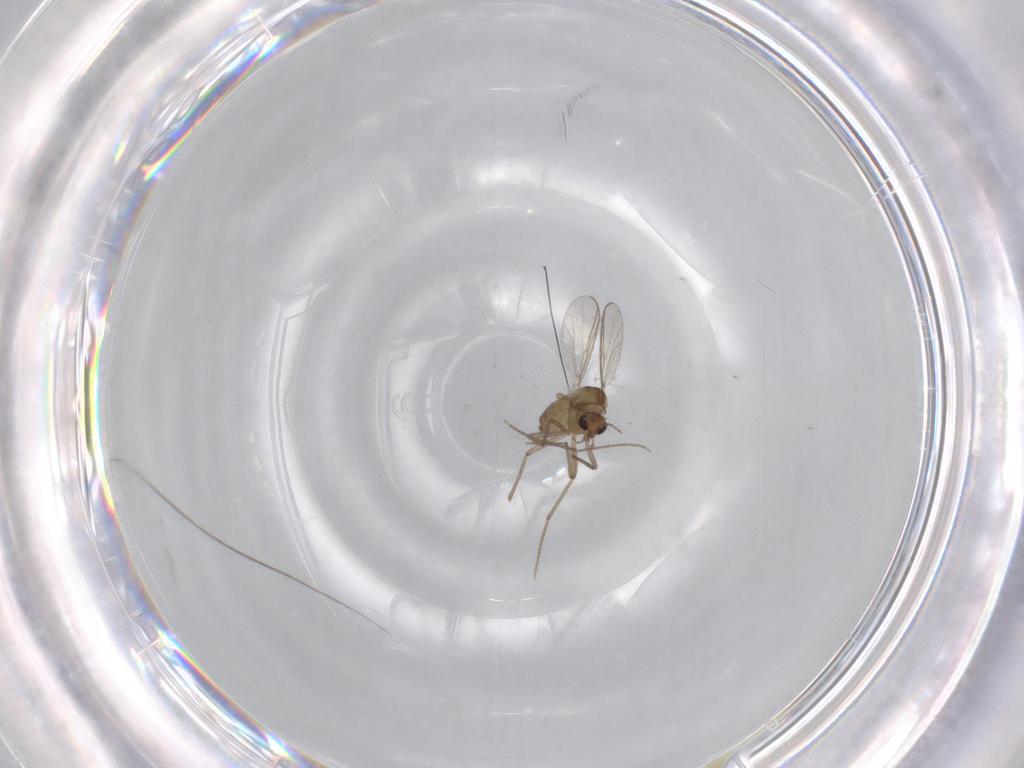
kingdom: Animalia
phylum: Arthropoda
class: Insecta
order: Diptera
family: Chironomidae
